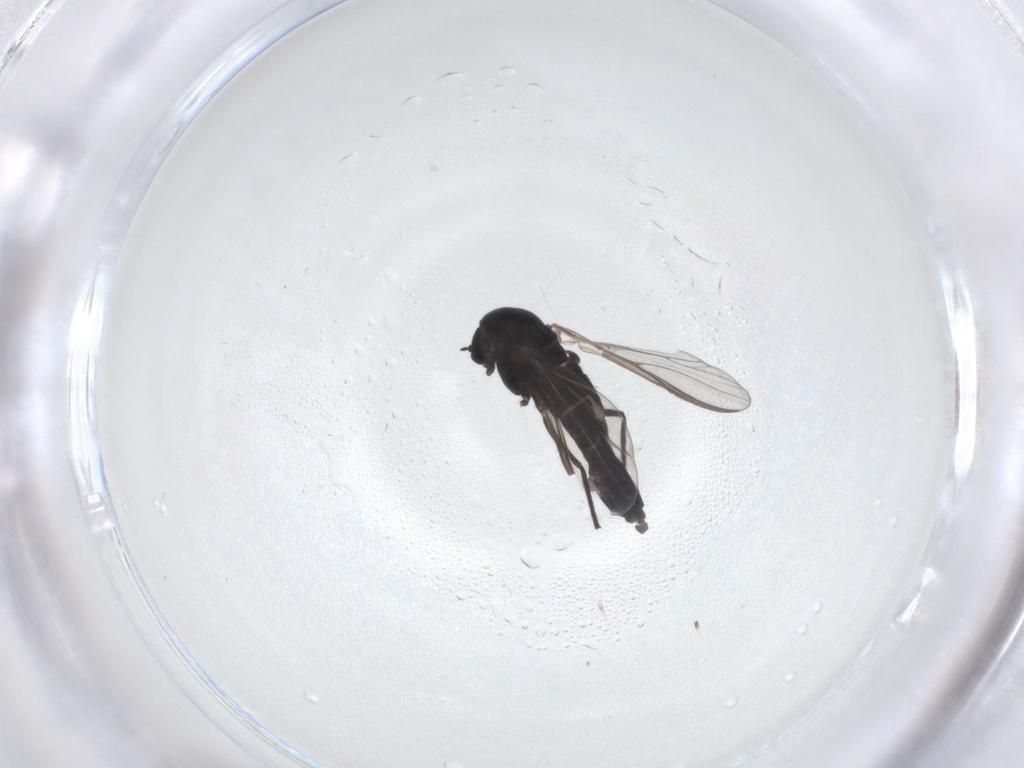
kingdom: Animalia
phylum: Arthropoda
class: Insecta
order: Diptera
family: Chironomidae
